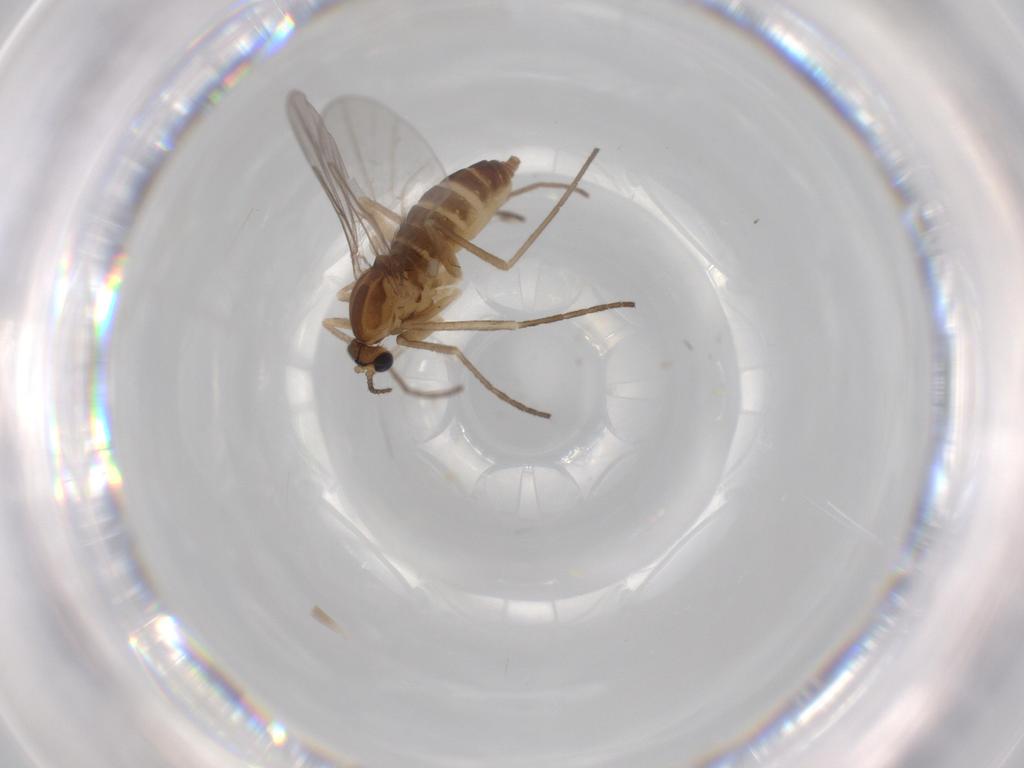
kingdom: Animalia
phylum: Arthropoda
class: Insecta
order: Diptera
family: Cecidomyiidae
